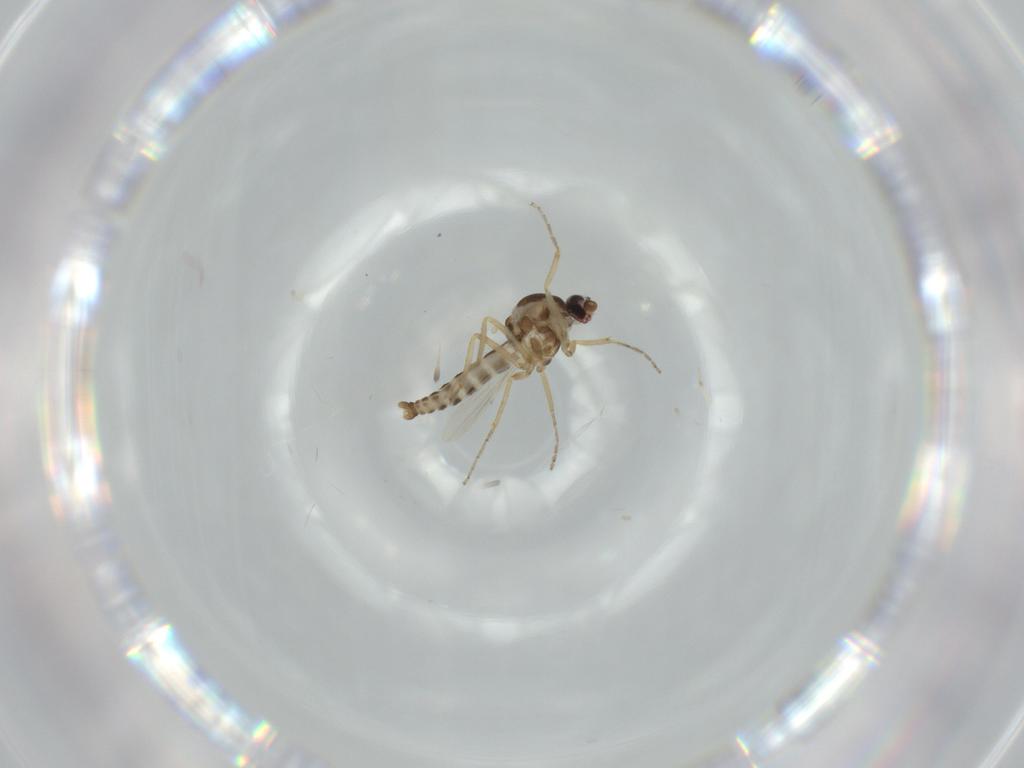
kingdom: Animalia
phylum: Arthropoda
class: Insecta
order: Diptera
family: Ceratopogonidae
